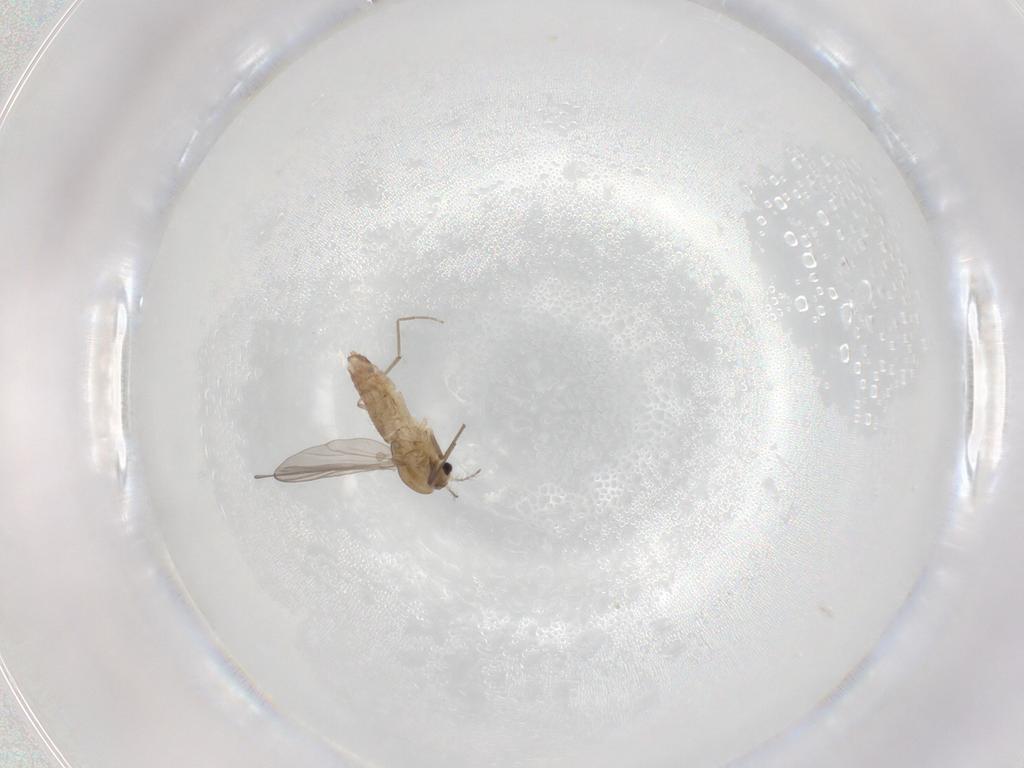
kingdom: Animalia
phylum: Arthropoda
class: Insecta
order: Diptera
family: Chironomidae
